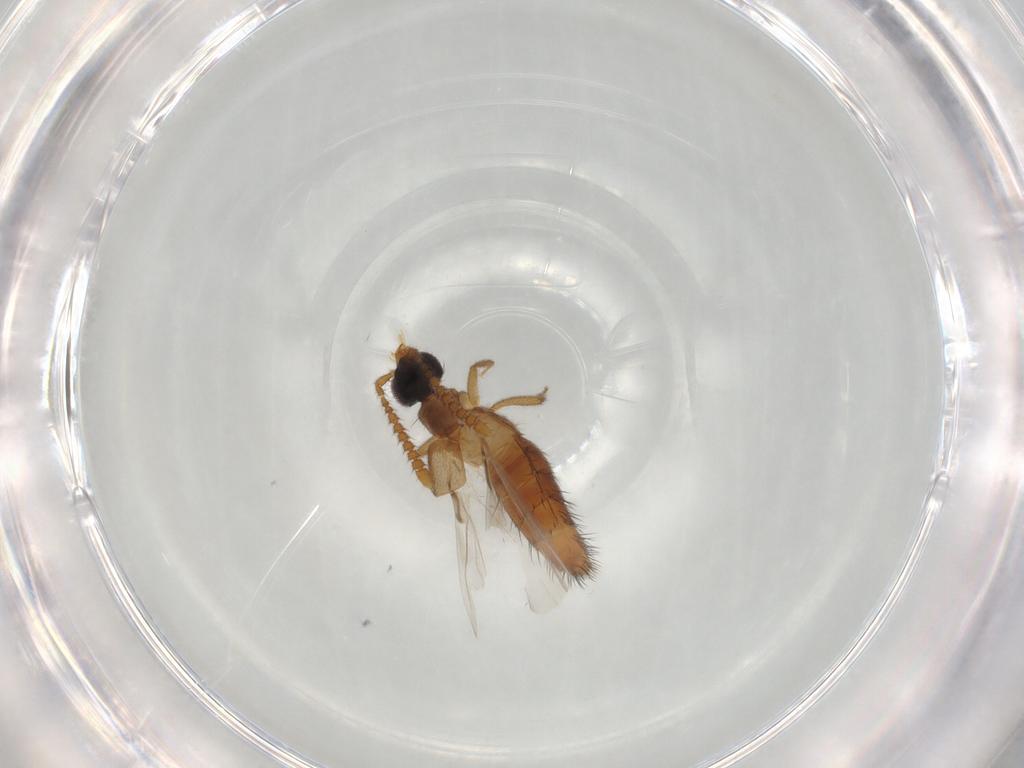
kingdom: Animalia
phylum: Arthropoda
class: Insecta
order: Coleoptera
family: Staphylinidae
